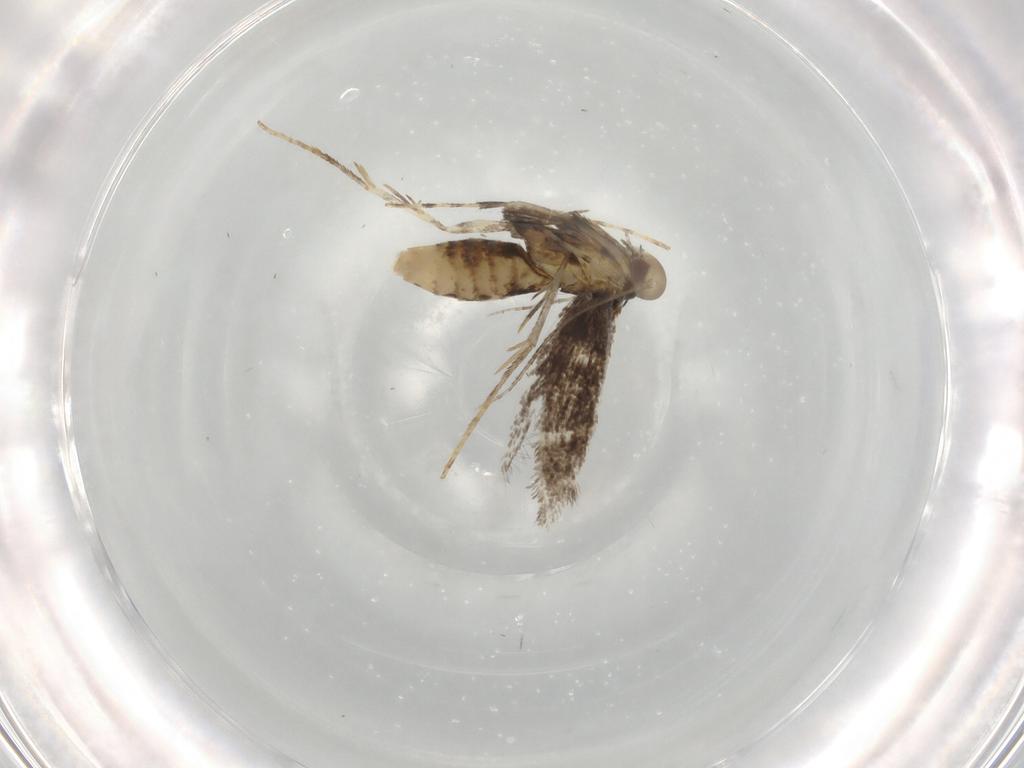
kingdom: Animalia
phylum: Arthropoda
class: Insecta
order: Lepidoptera
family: Gracillariidae
